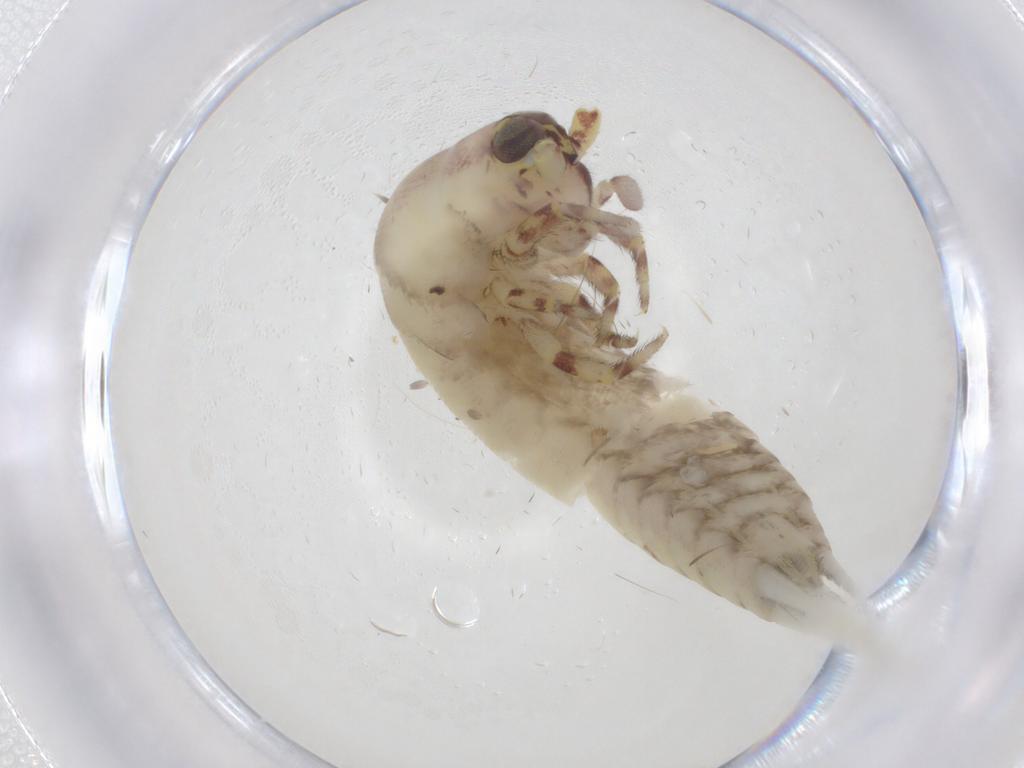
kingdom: Animalia
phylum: Arthropoda
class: Insecta
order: Archaeognatha
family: Meinertellidae
